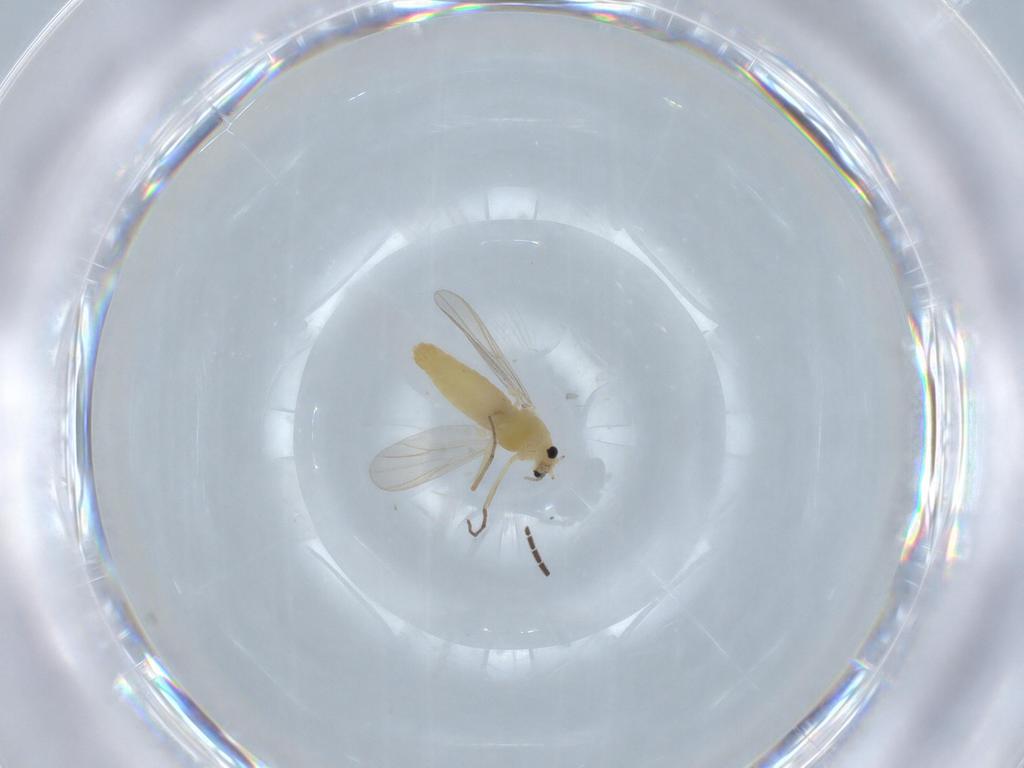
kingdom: Animalia
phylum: Arthropoda
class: Insecta
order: Diptera
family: Chironomidae
